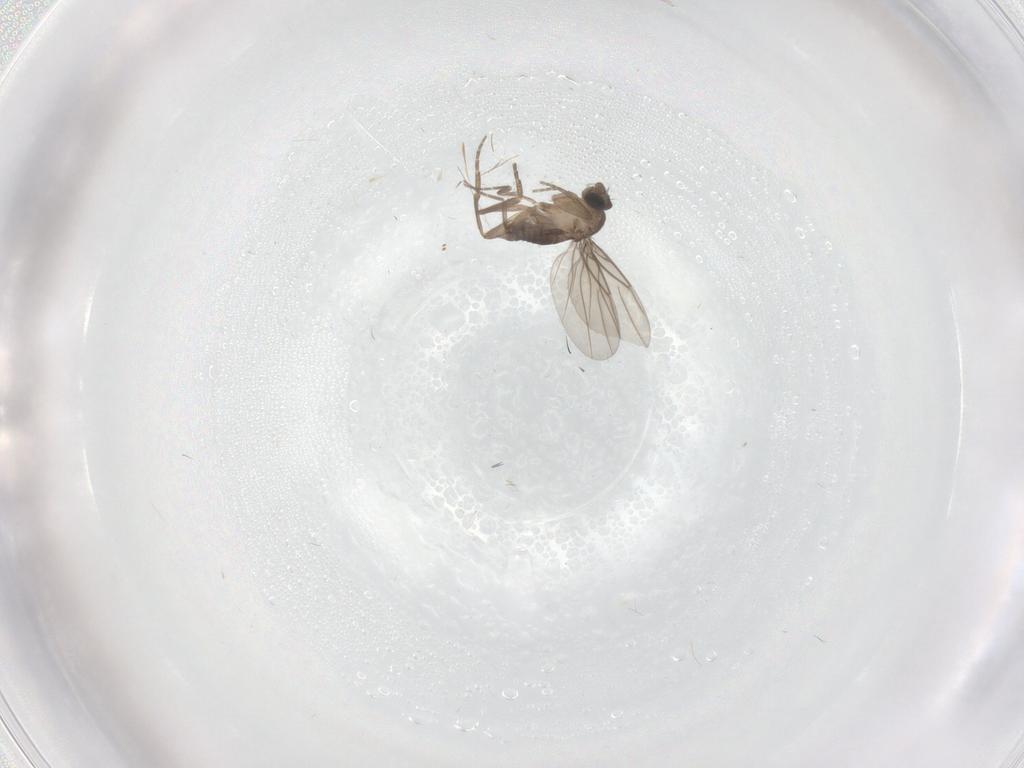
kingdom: Animalia
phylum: Arthropoda
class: Insecta
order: Diptera
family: Phoridae
